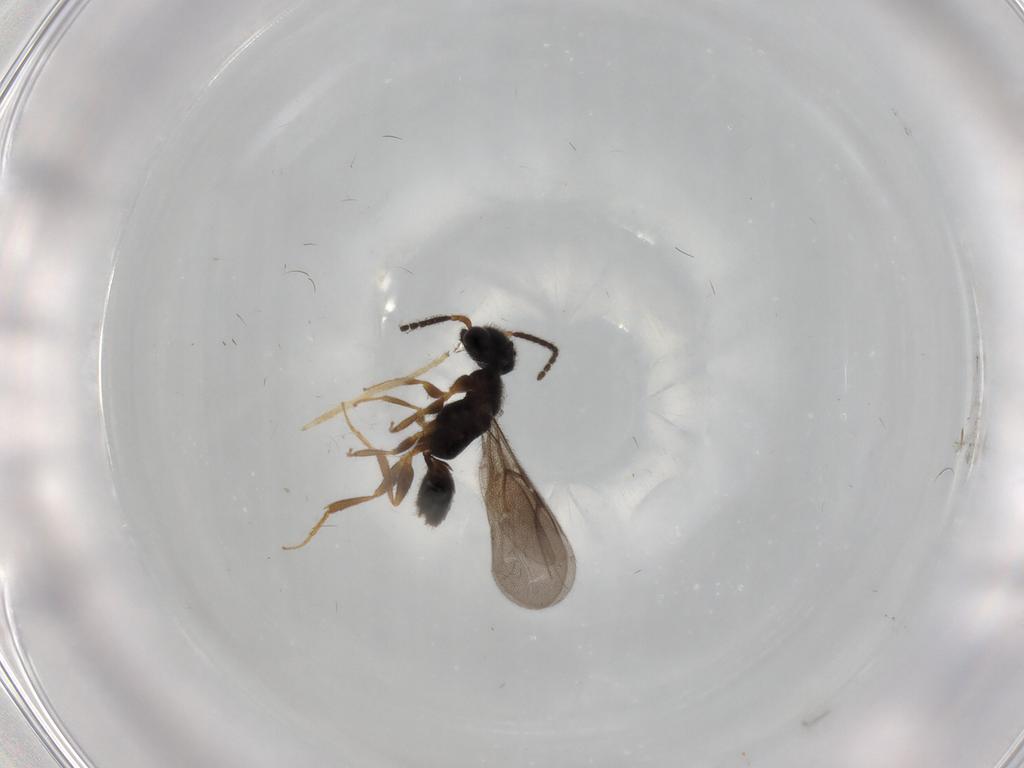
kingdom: Animalia
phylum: Arthropoda
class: Insecta
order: Hymenoptera
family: Bethylidae
